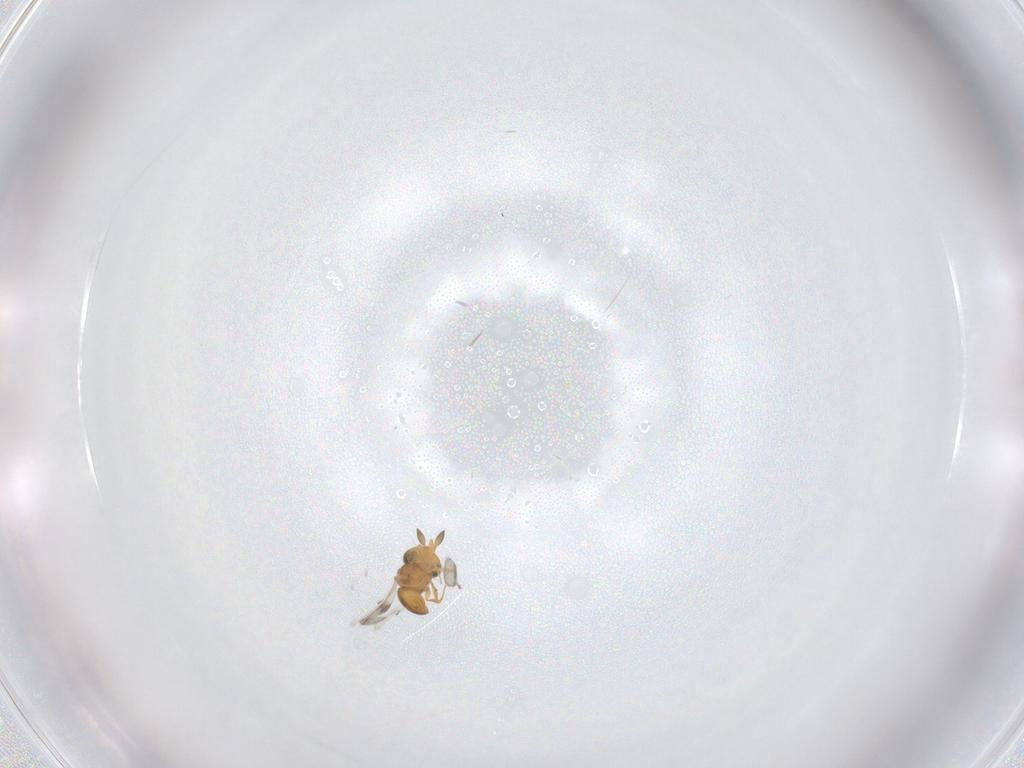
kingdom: Animalia
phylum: Arthropoda
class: Insecta
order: Hymenoptera
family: Scelionidae
